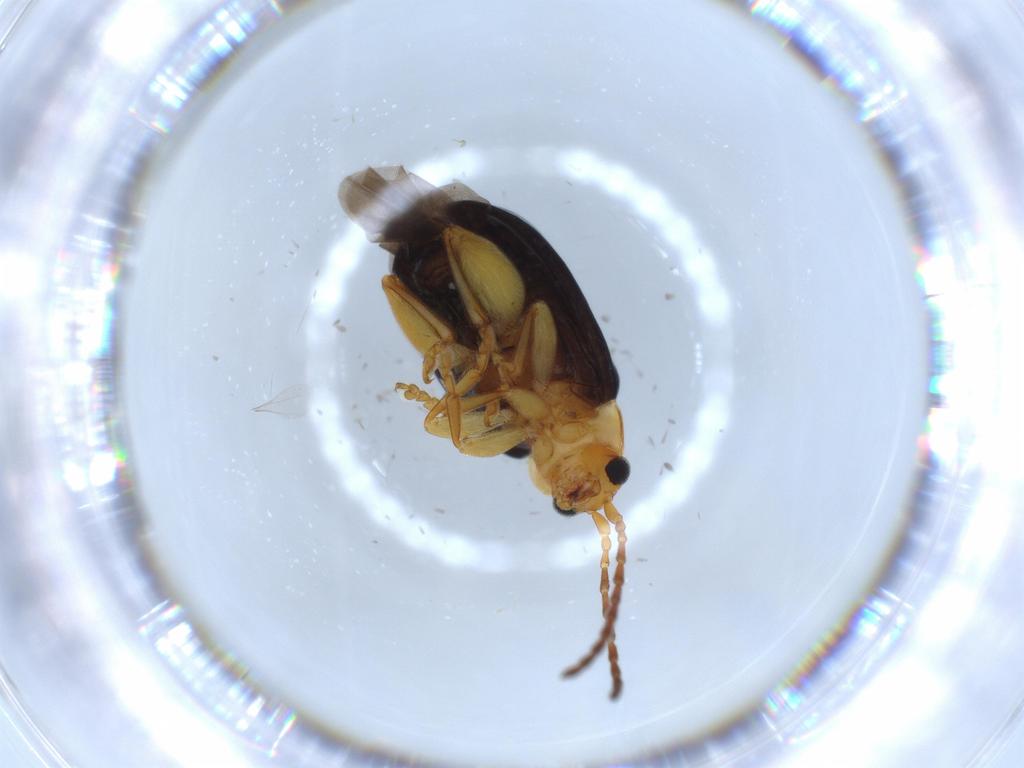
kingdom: Animalia
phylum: Arthropoda
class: Insecta
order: Coleoptera
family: Chrysomelidae
